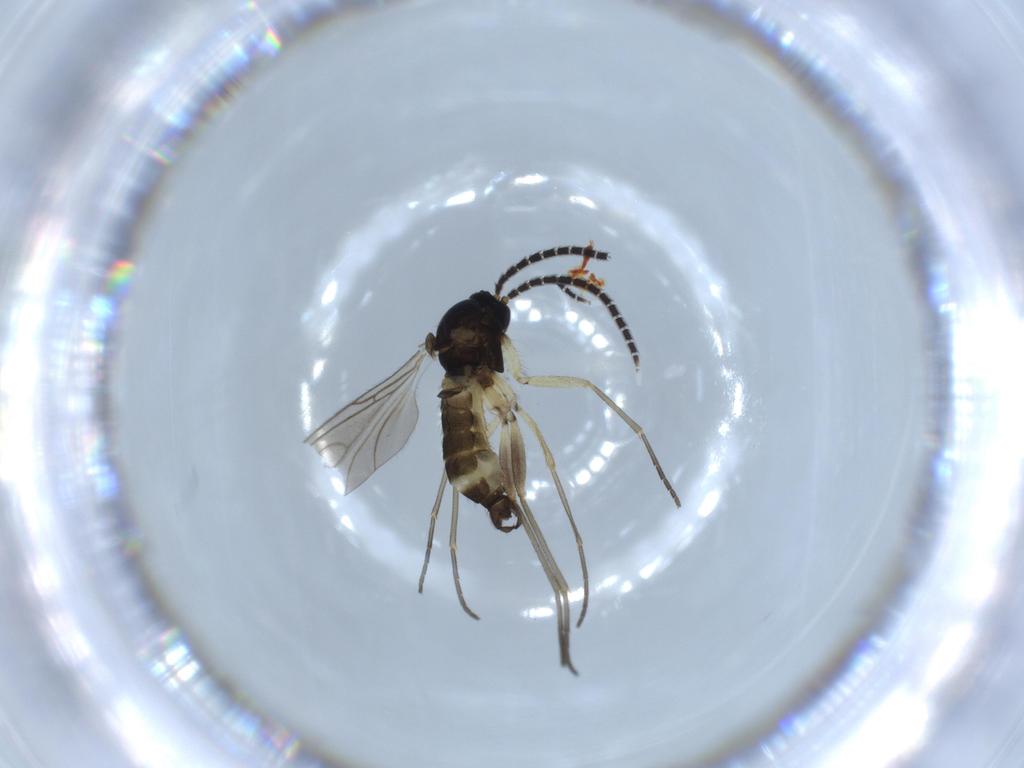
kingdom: Animalia
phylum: Arthropoda
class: Insecta
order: Diptera
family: Sciaridae
